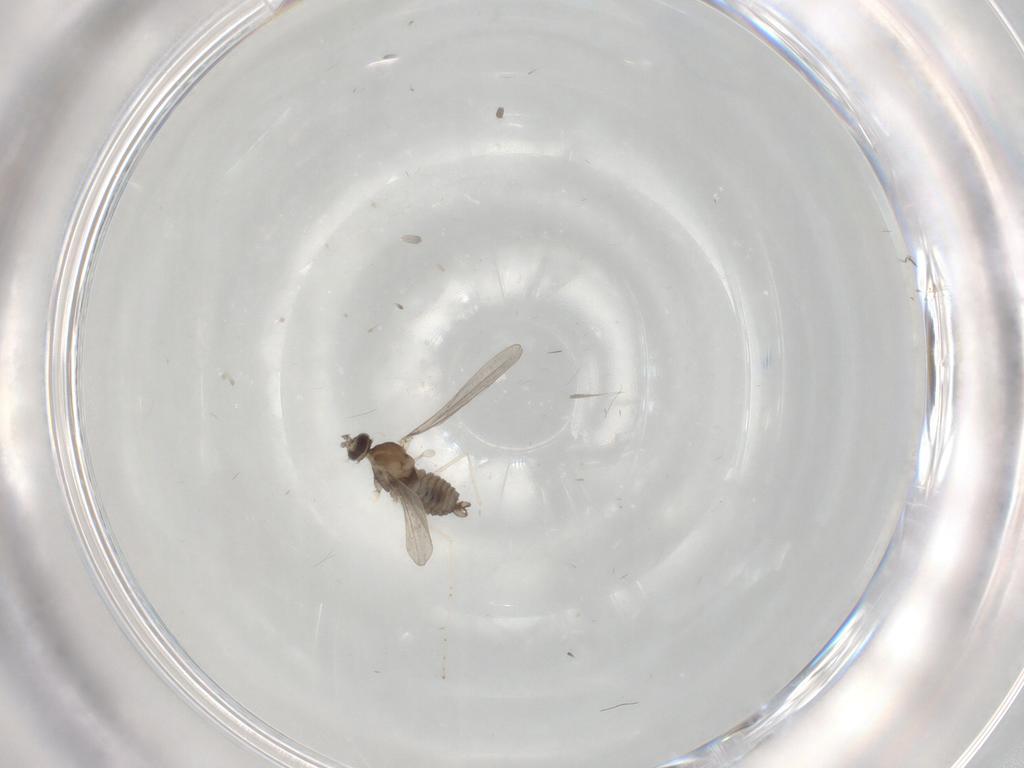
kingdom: Animalia
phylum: Arthropoda
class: Insecta
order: Diptera
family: Cecidomyiidae
